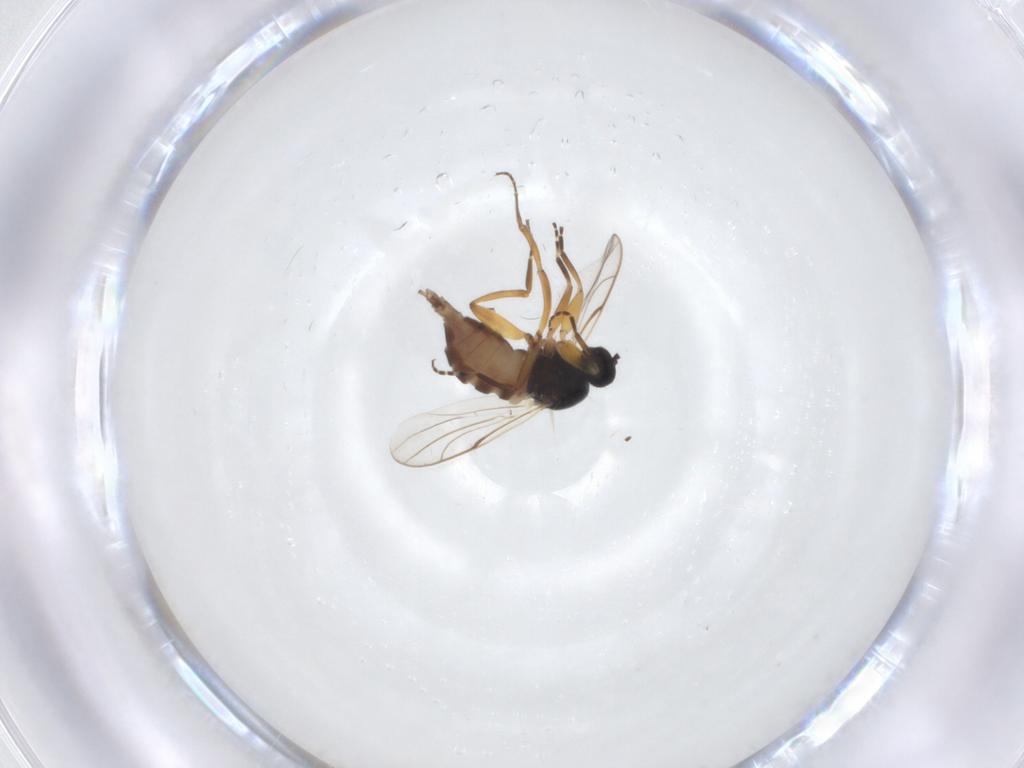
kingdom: Animalia
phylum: Arthropoda
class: Insecta
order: Diptera
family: Hybotidae
